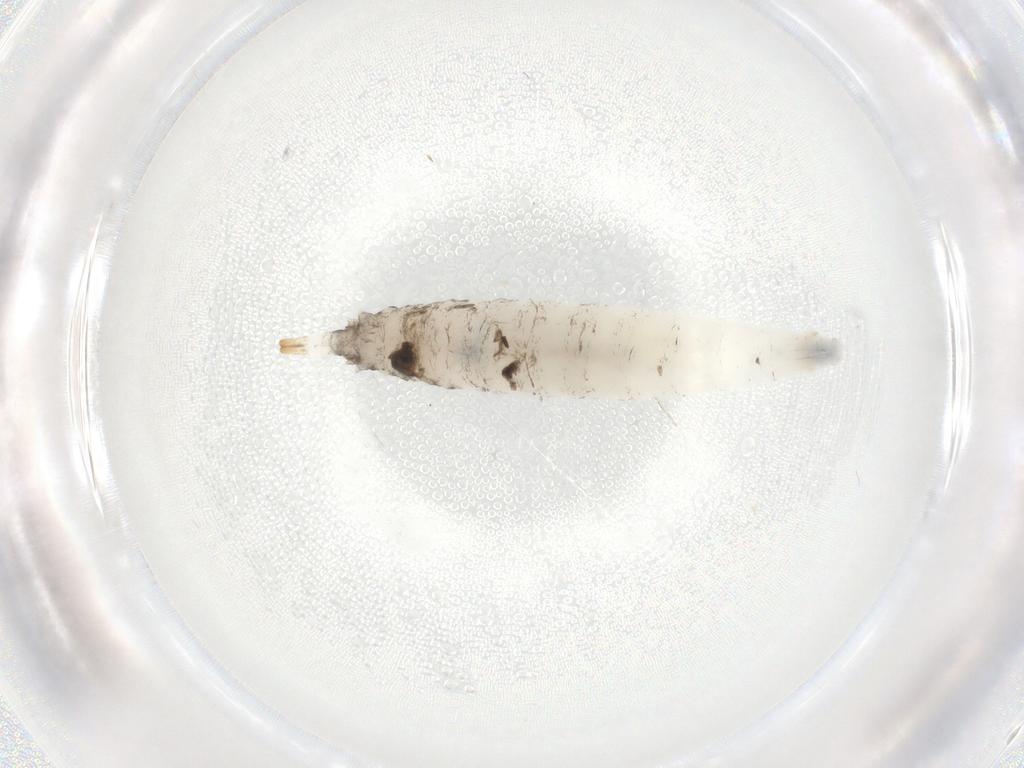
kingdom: Animalia
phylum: Arthropoda
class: Insecta
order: Diptera
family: Drosophilidae
